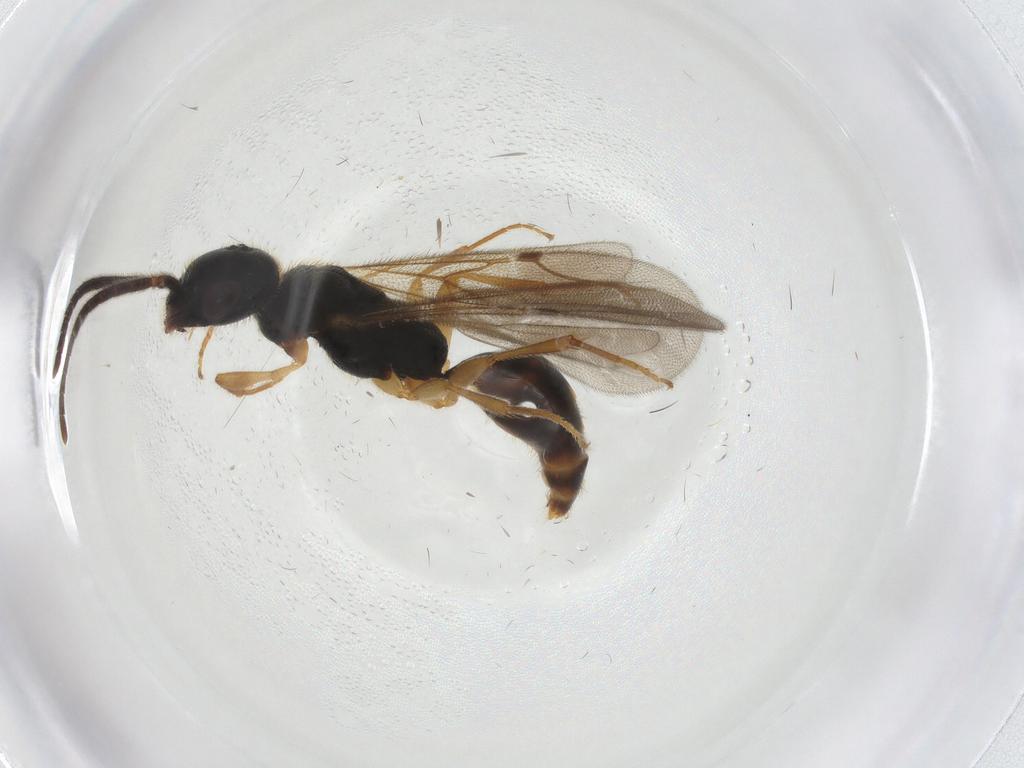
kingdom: Animalia
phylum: Arthropoda
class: Insecta
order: Hymenoptera
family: Bethylidae
